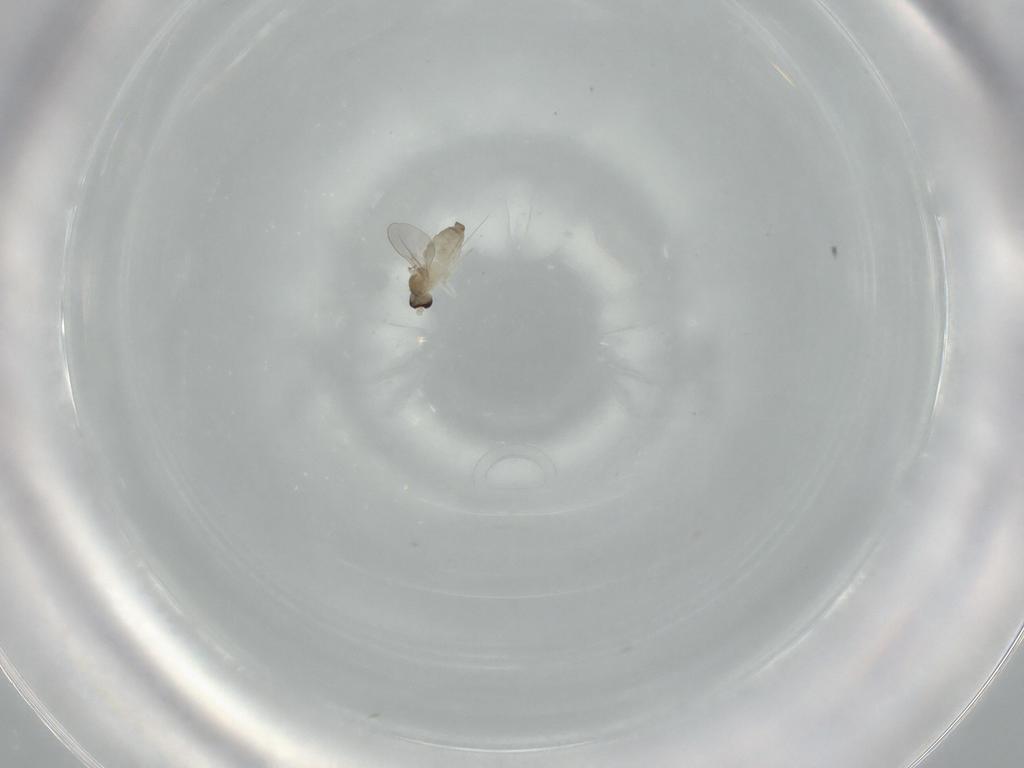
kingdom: Animalia
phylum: Arthropoda
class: Insecta
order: Diptera
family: Cecidomyiidae
